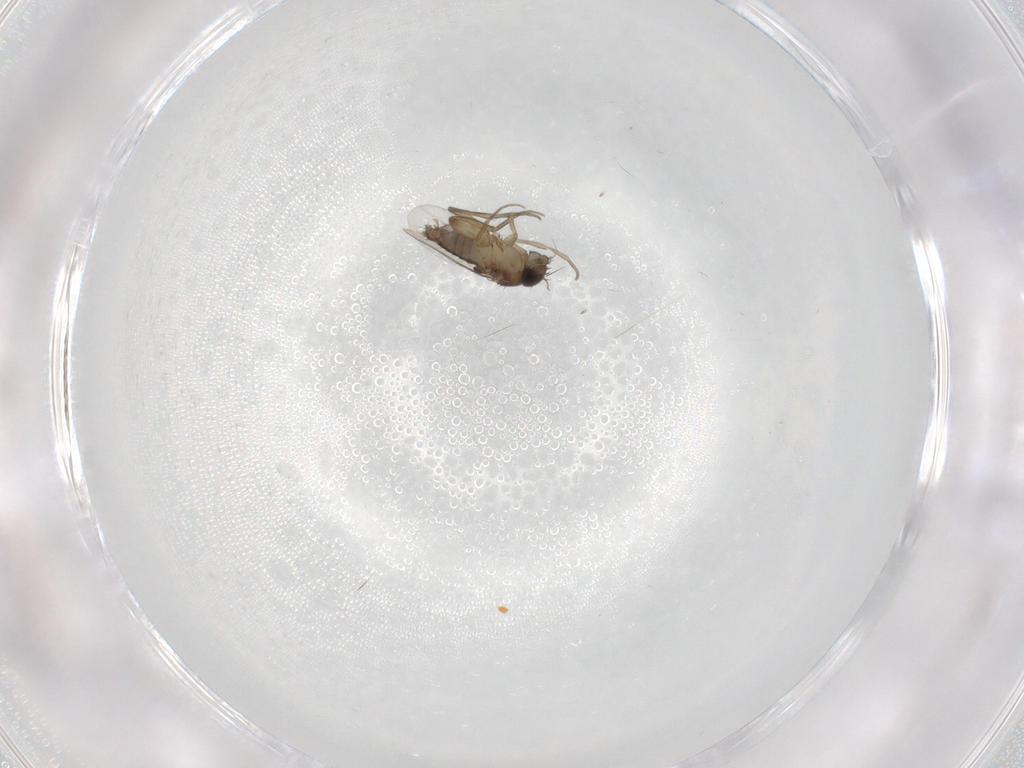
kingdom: Animalia
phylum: Arthropoda
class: Insecta
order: Diptera
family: Phoridae
